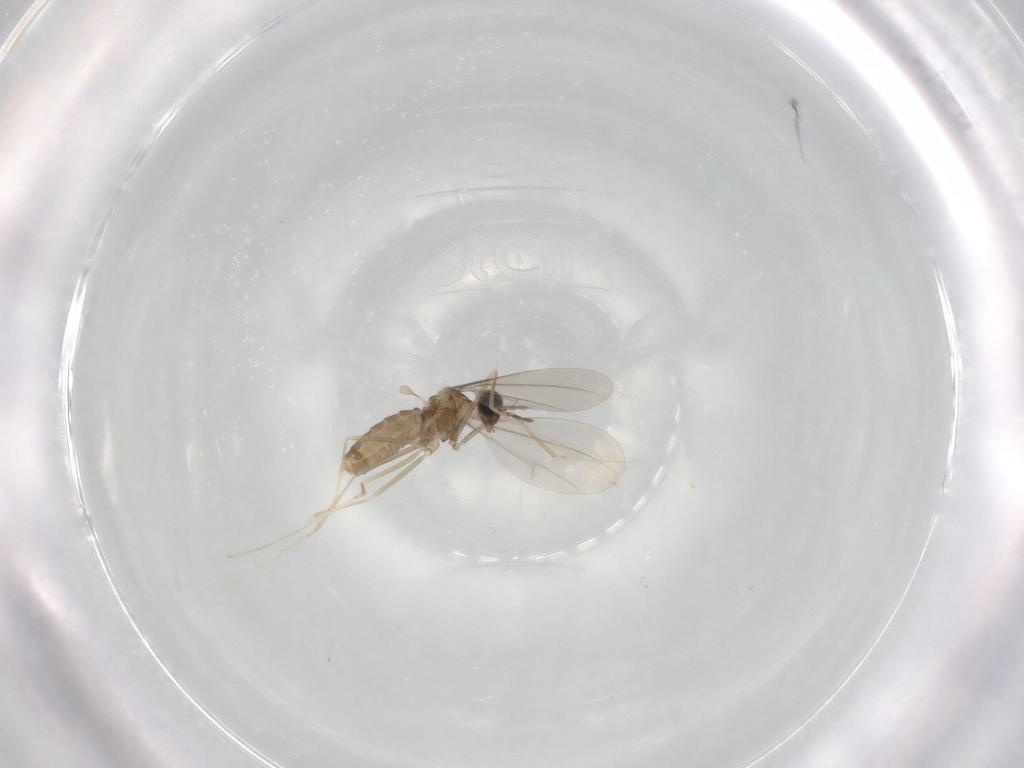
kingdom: Animalia
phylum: Arthropoda
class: Insecta
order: Diptera
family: Cecidomyiidae
